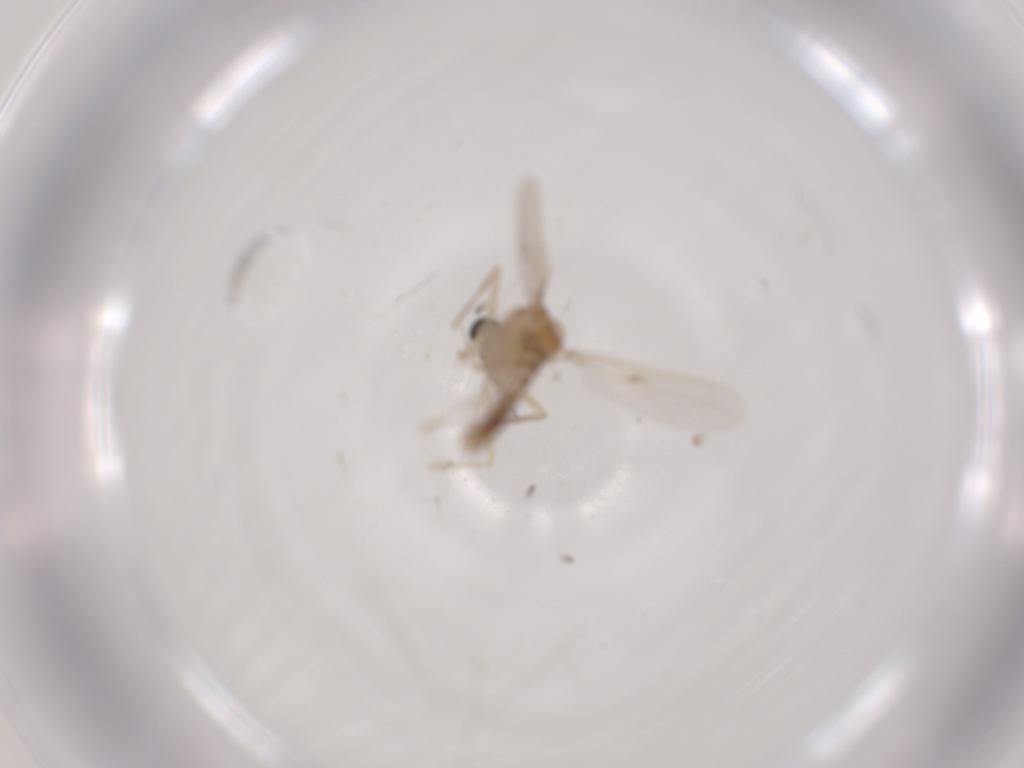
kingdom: Animalia
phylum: Arthropoda
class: Insecta
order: Diptera
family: Chironomidae
